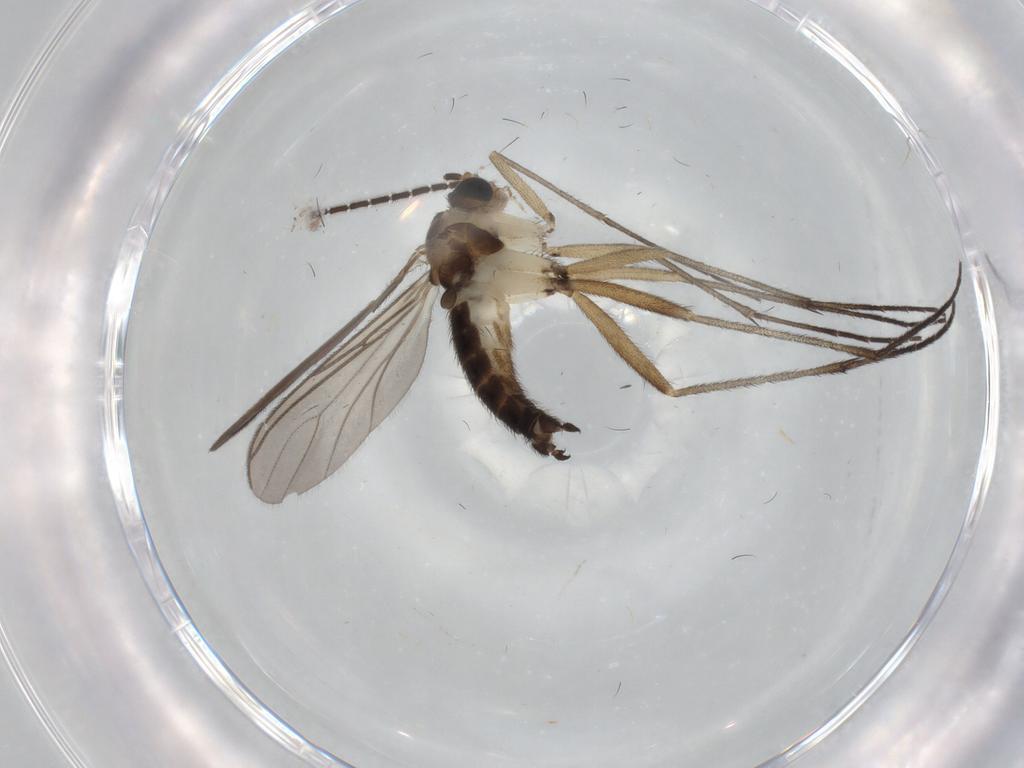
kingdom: Animalia
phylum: Arthropoda
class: Insecta
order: Diptera
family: Sciaridae
